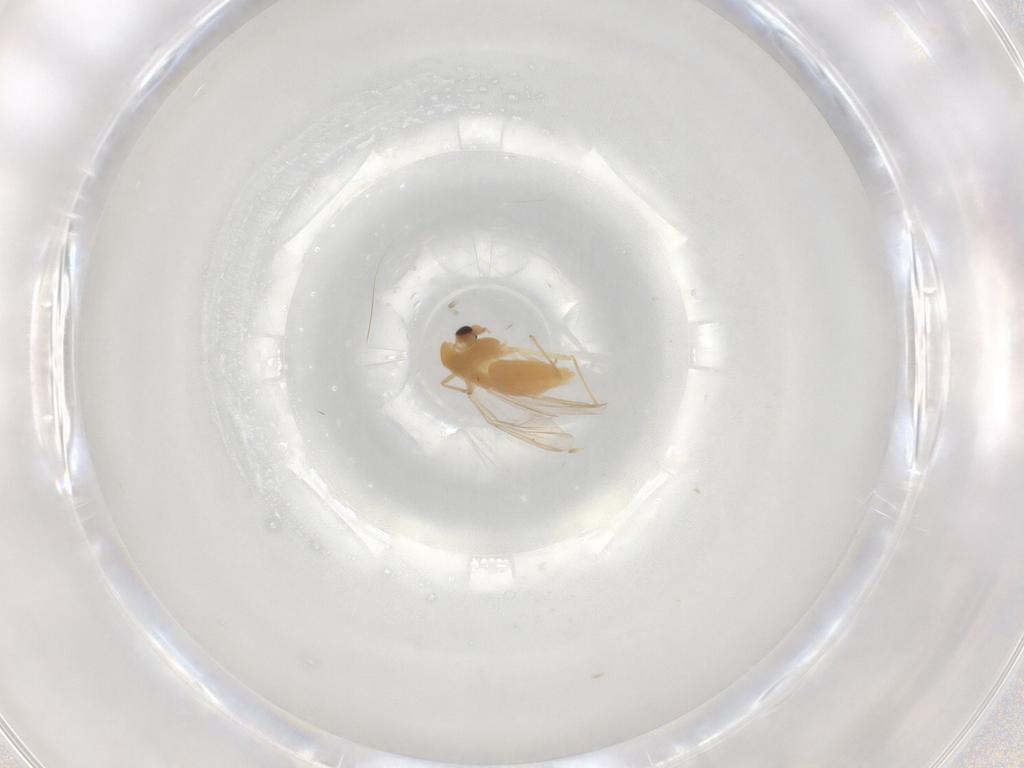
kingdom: Animalia
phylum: Arthropoda
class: Insecta
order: Diptera
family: Chironomidae
